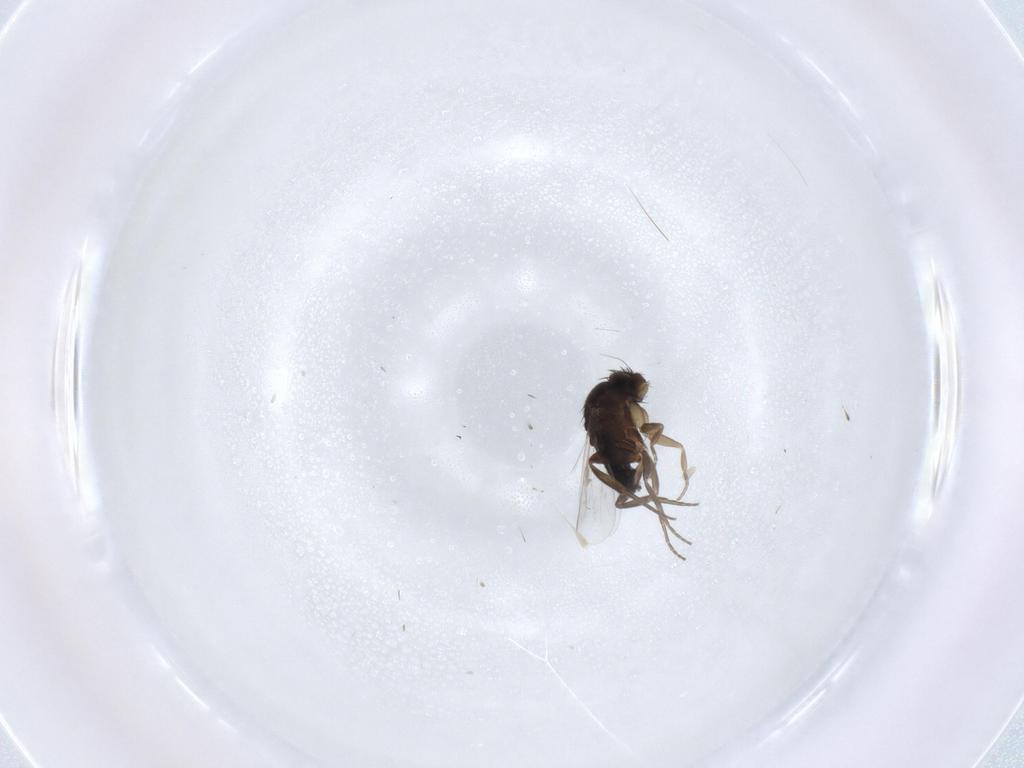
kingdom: Animalia
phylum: Arthropoda
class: Insecta
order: Diptera
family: Phoridae
